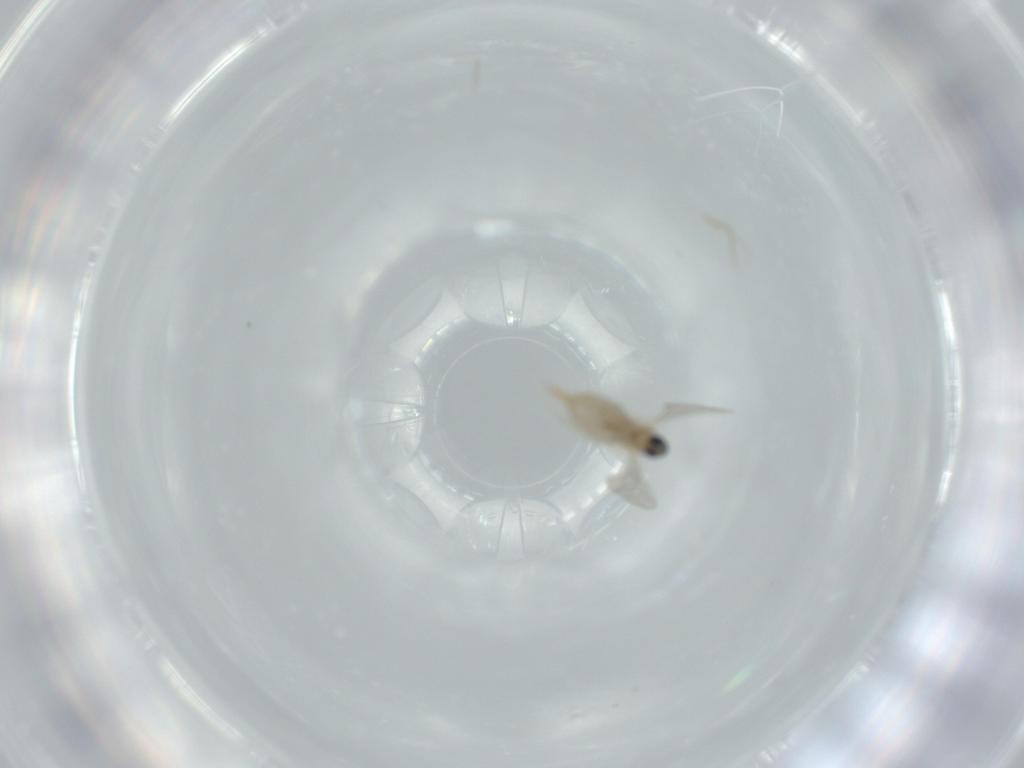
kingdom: Animalia
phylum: Arthropoda
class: Insecta
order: Diptera
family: Cecidomyiidae
